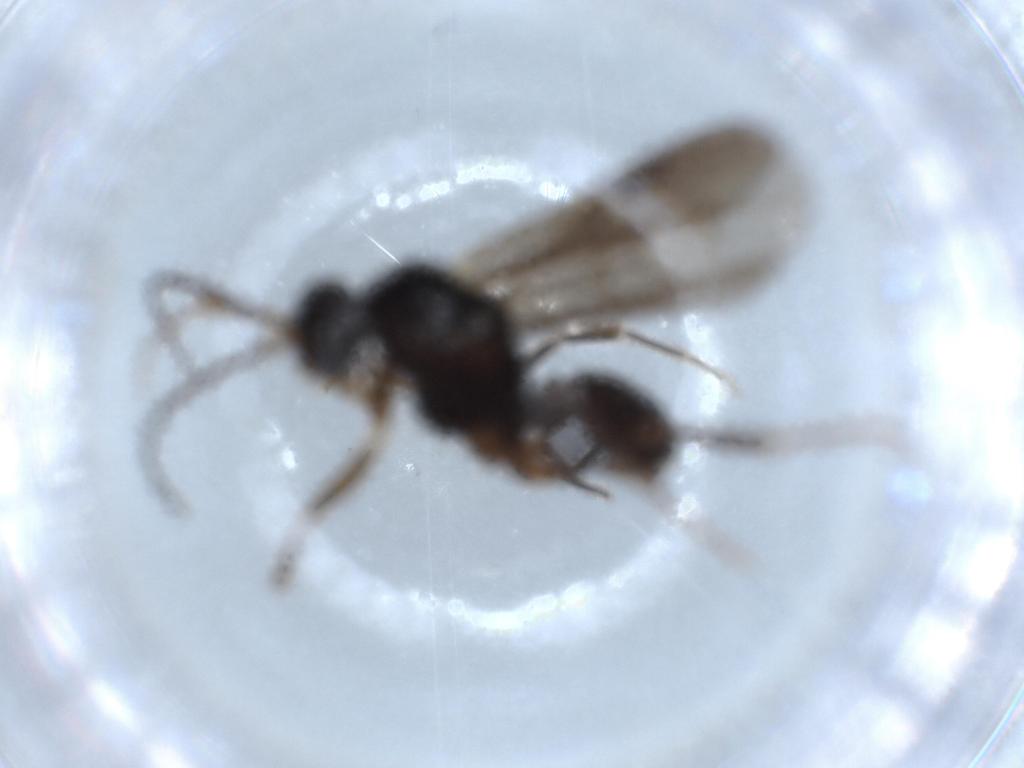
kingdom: Animalia
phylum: Arthropoda
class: Insecta
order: Hymenoptera
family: Formicidae
